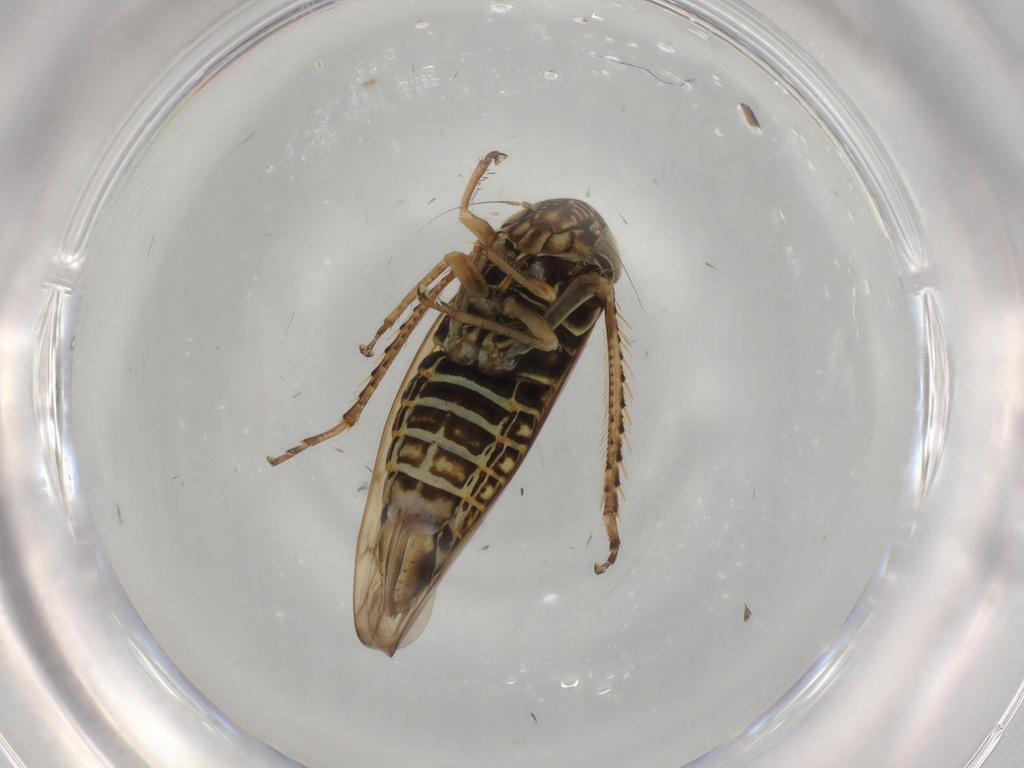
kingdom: Animalia
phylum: Arthropoda
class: Insecta
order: Hemiptera
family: Cicadellidae
